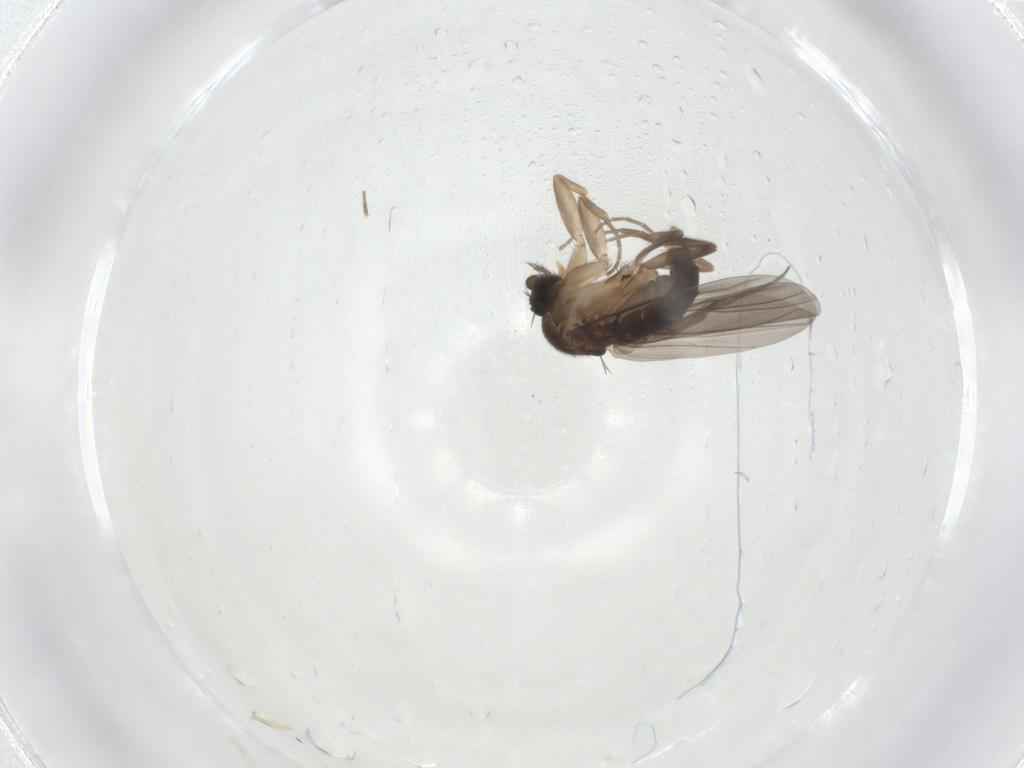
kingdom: Animalia
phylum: Arthropoda
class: Insecta
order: Diptera
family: Phoridae
